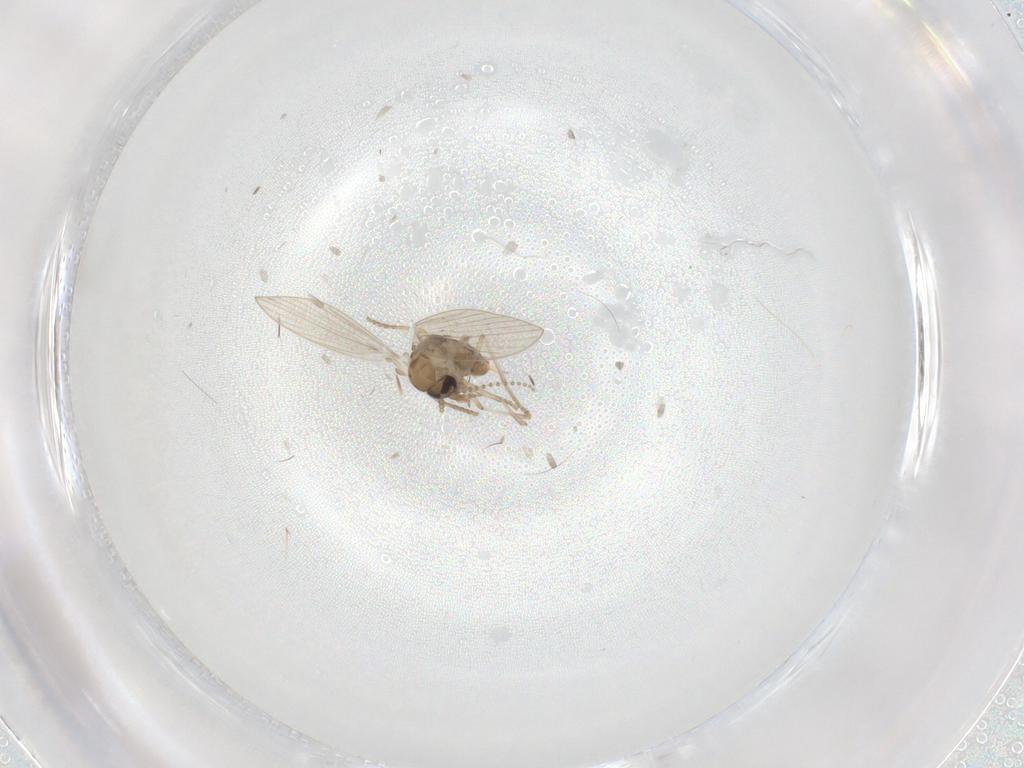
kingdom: Animalia
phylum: Arthropoda
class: Insecta
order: Diptera
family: Psychodidae
